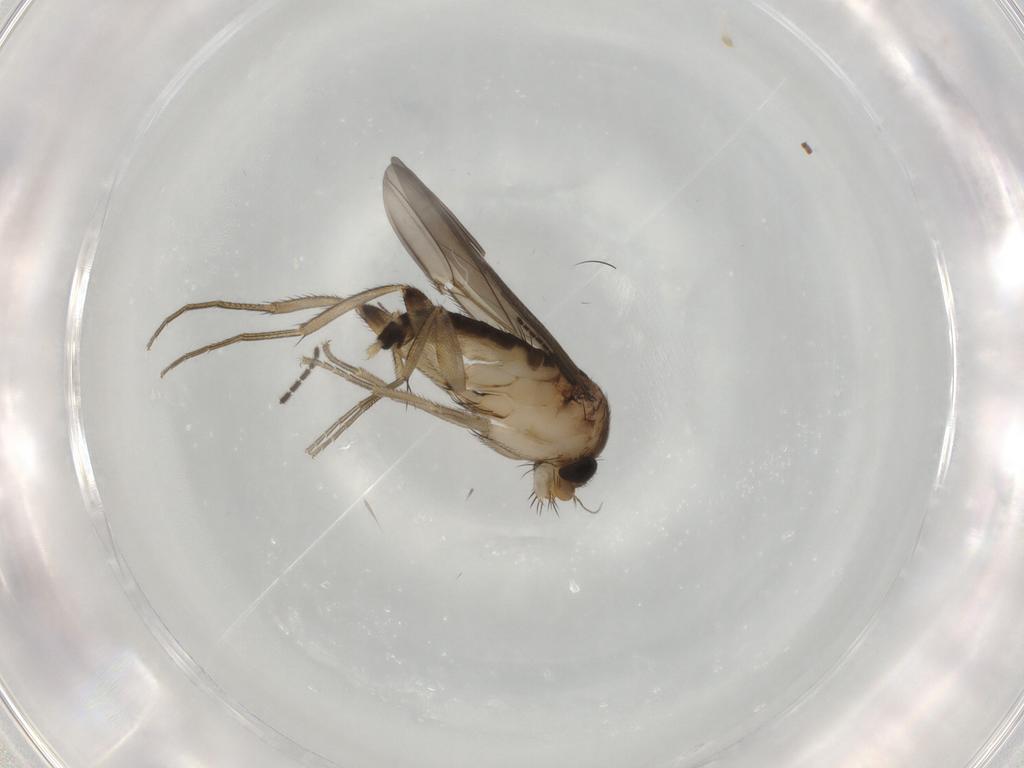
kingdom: Animalia
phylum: Arthropoda
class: Insecta
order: Diptera
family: Phoridae
